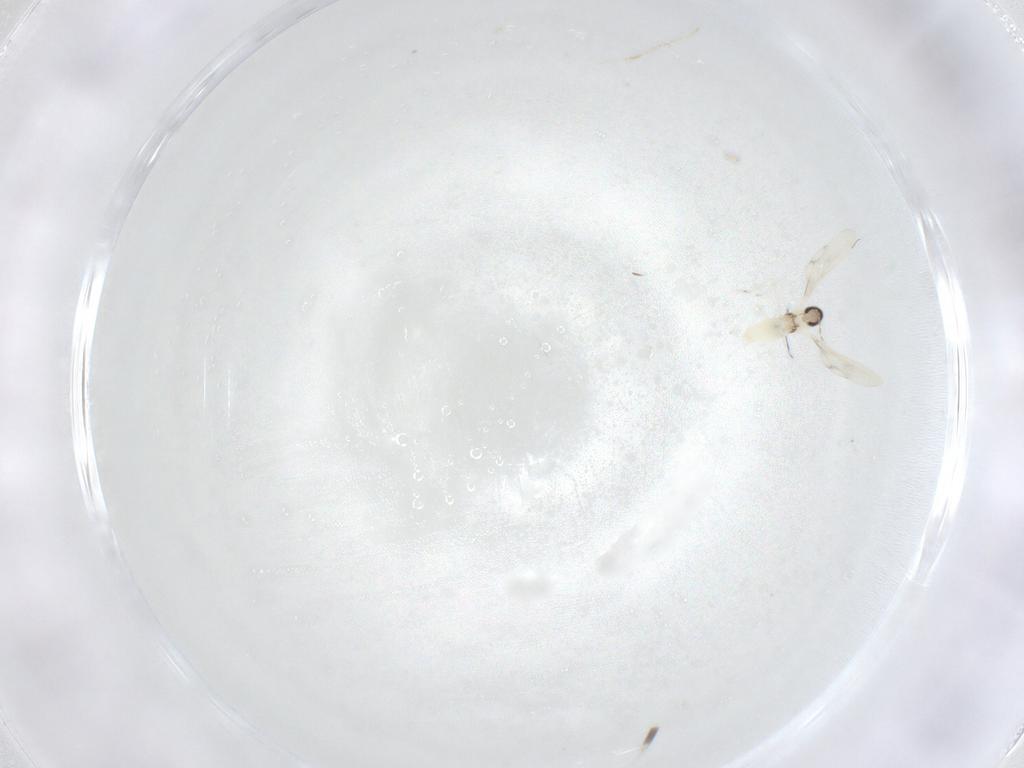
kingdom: Animalia
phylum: Arthropoda
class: Insecta
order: Diptera
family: Cecidomyiidae
